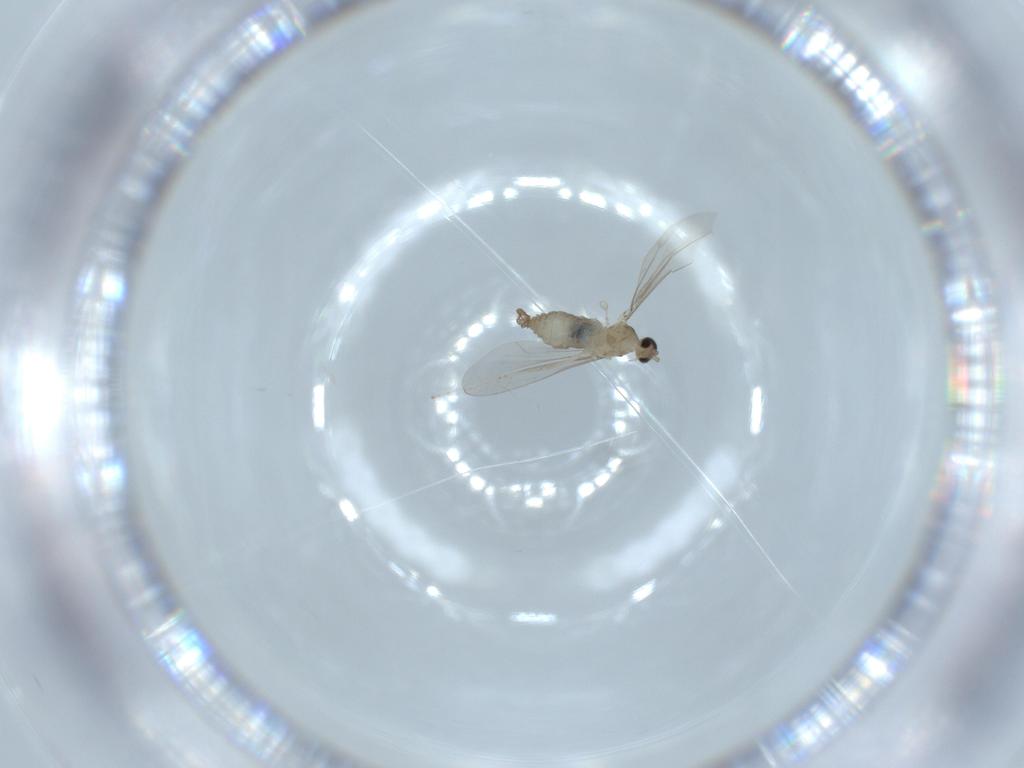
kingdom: Animalia
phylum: Arthropoda
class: Insecta
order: Diptera
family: Cecidomyiidae
